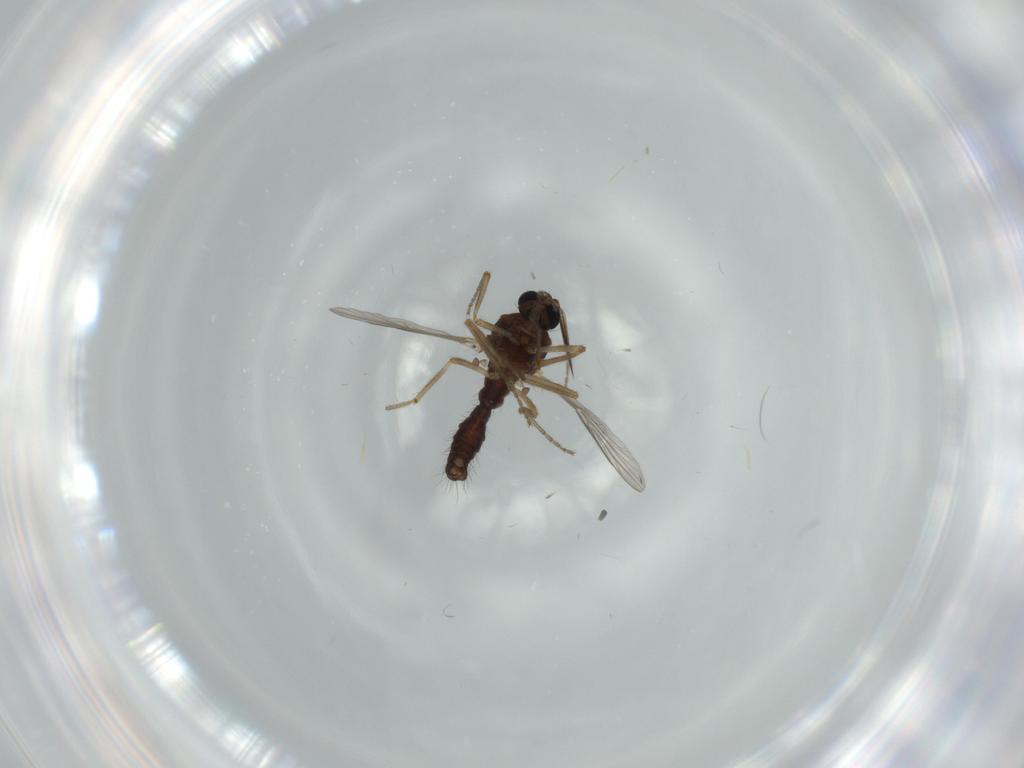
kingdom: Animalia
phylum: Arthropoda
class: Insecta
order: Diptera
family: Ceratopogonidae
